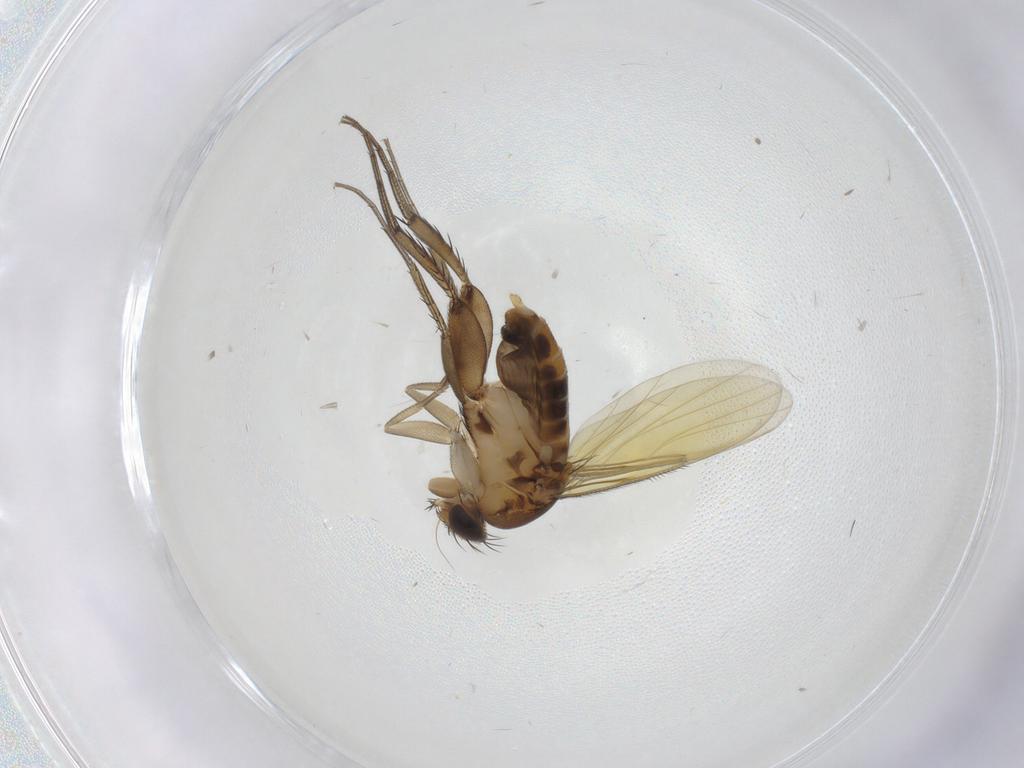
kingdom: Animalia
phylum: Arthropoda
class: Insecta
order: Diptera
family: Phoridae
